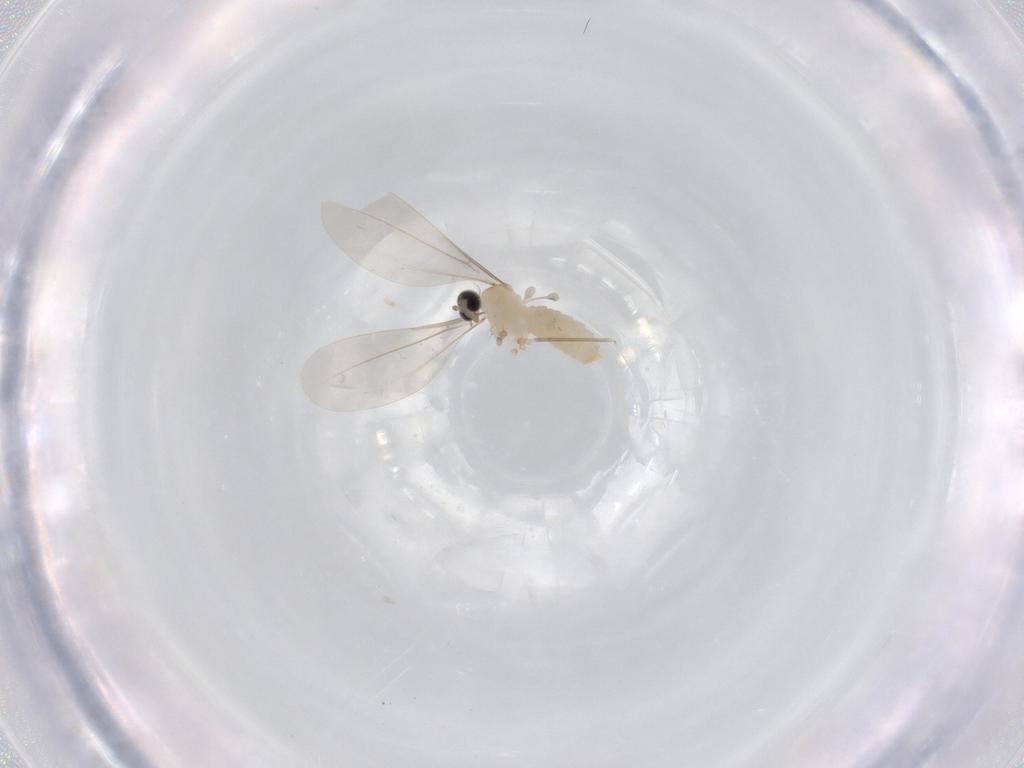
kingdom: Animalia
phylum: Arthropoda
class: Insecta
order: Diptera
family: Cecidomyiidae
